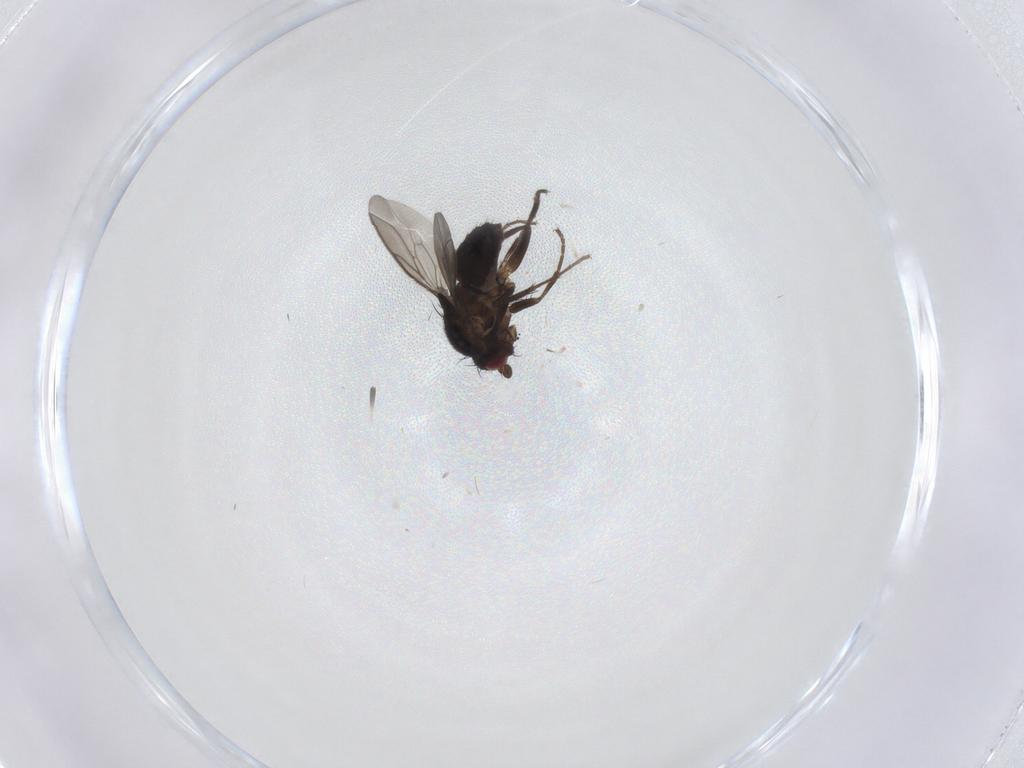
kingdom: Animalia
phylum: Arthropoda
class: Insecta
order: Diptera
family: Sphaeroceridae
